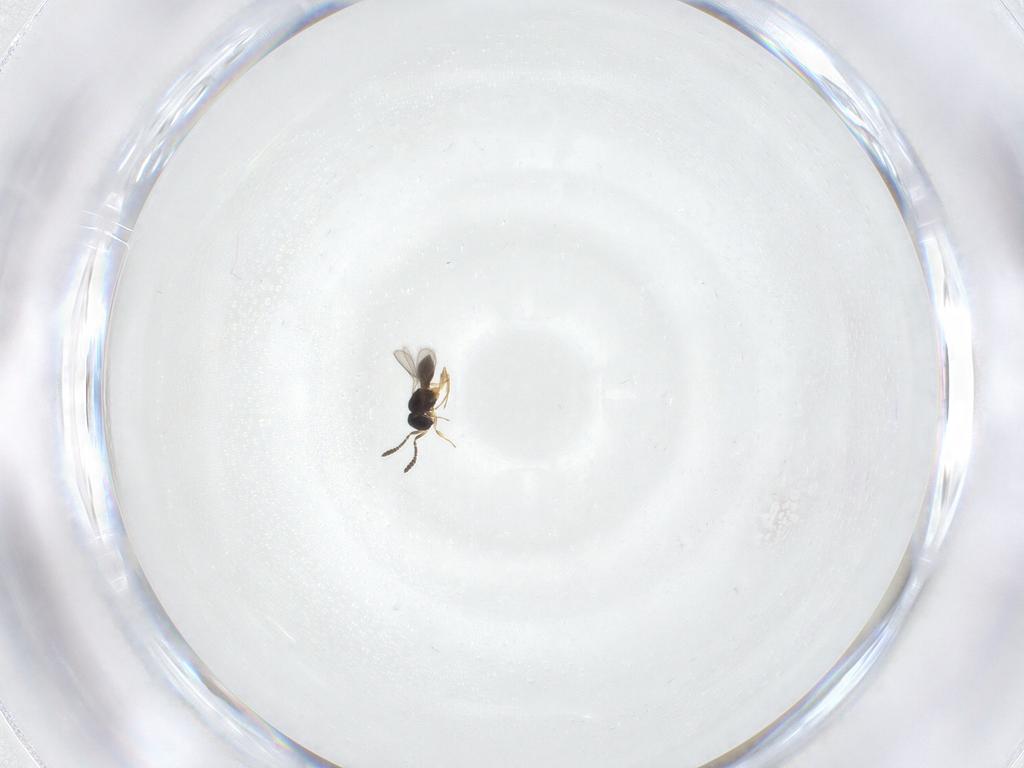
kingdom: Animalia
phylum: Arthropoda
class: Insecta
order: Hymenoptera
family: Scelionidae
